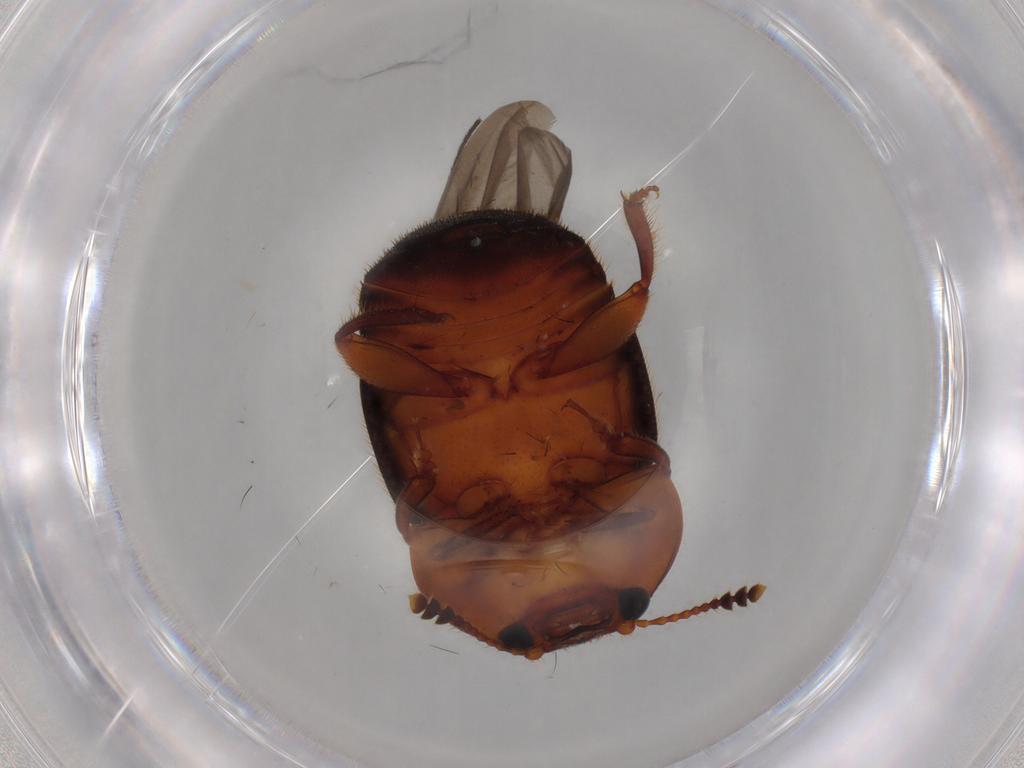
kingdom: Animalia
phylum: Arthropoda
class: Insecta
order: Coleoptera
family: Nitidulidae
